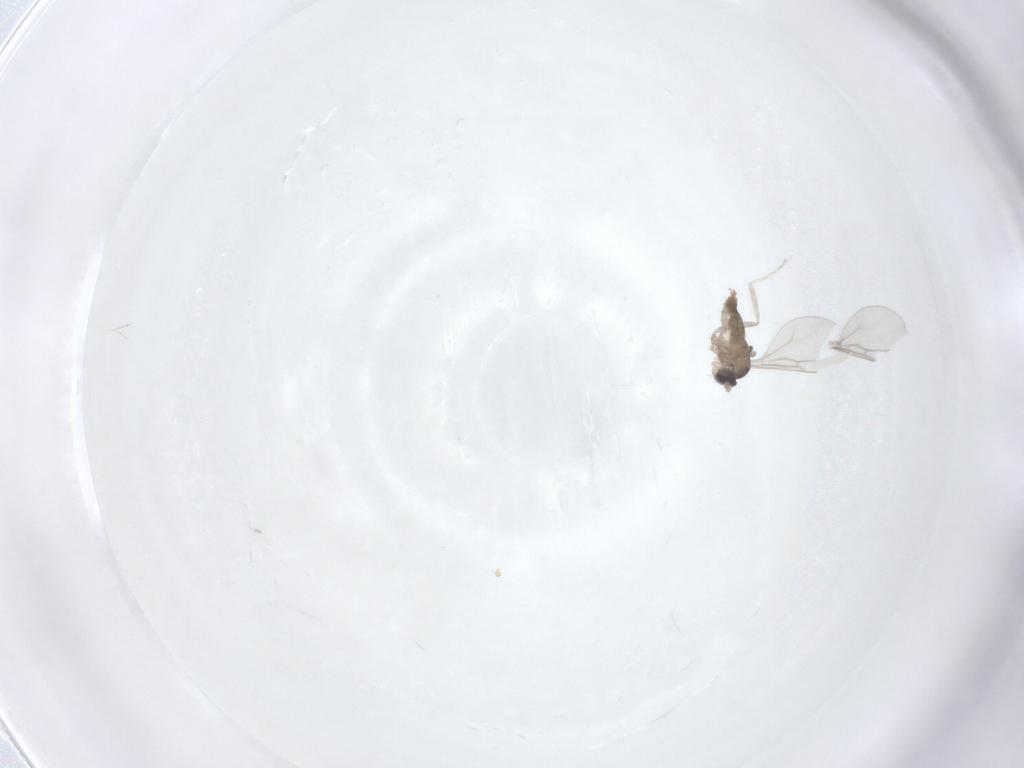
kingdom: Animalia
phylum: Arthropoda
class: Insecta
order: Diptera
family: Cecidomyiidae
